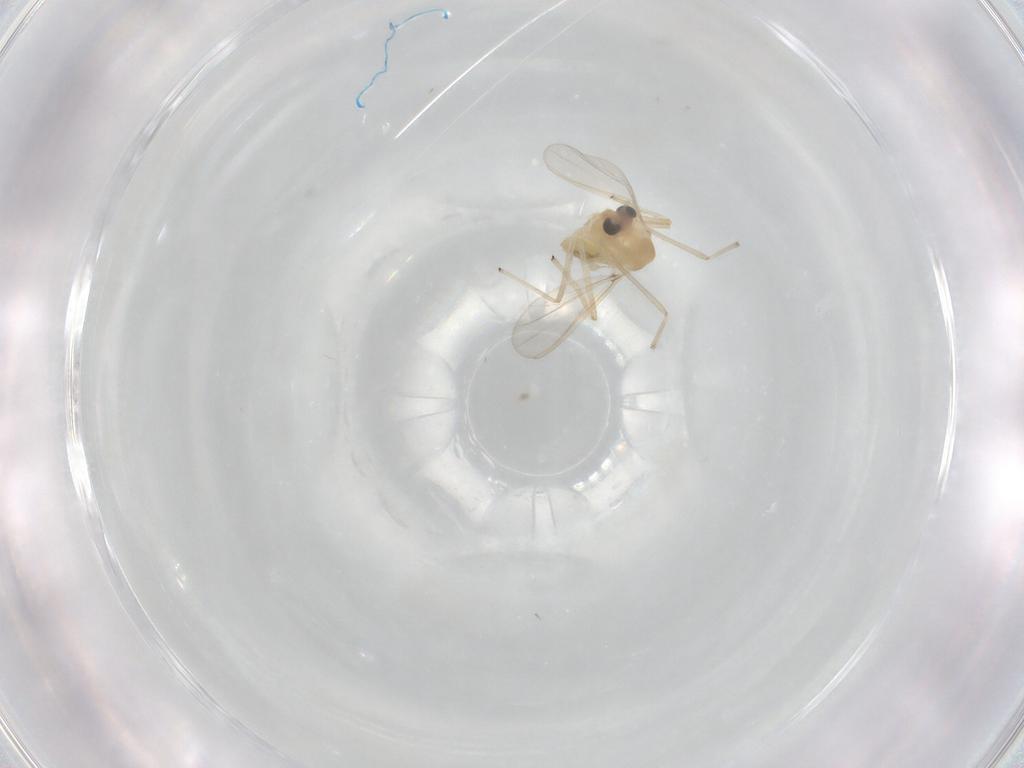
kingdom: Animalia
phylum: Arthropoda
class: Insecta
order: Diptera
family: Chironomidae
